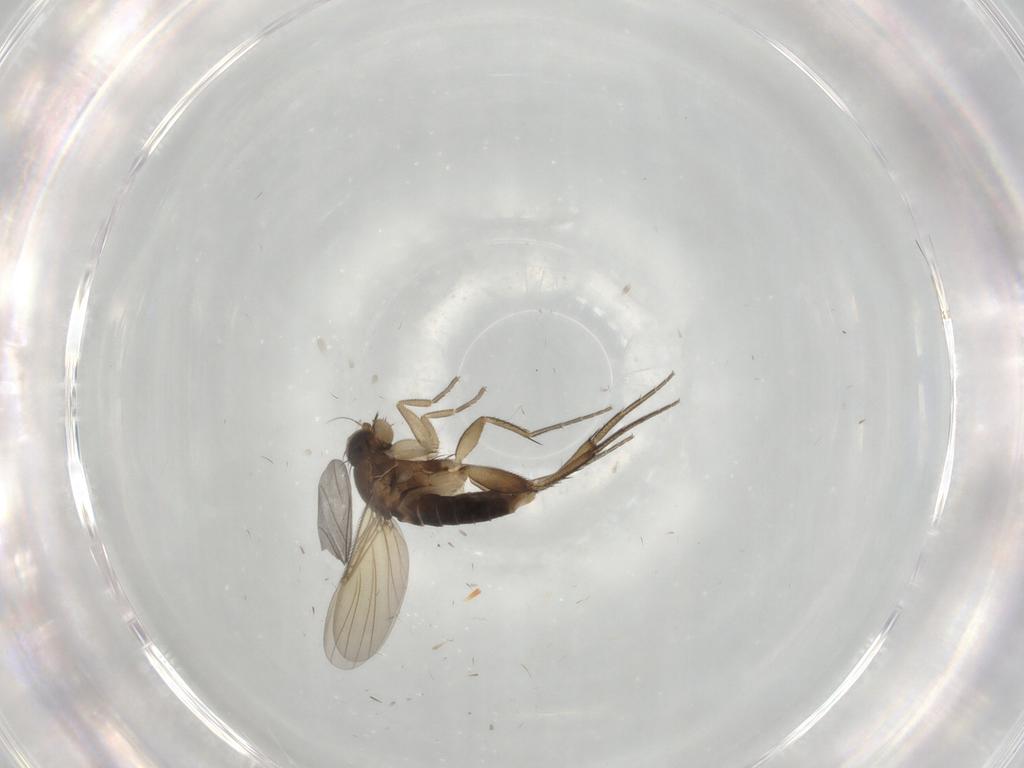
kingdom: Animalia
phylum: Arthropoda
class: Insecta
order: Diptera
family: Phoridae
